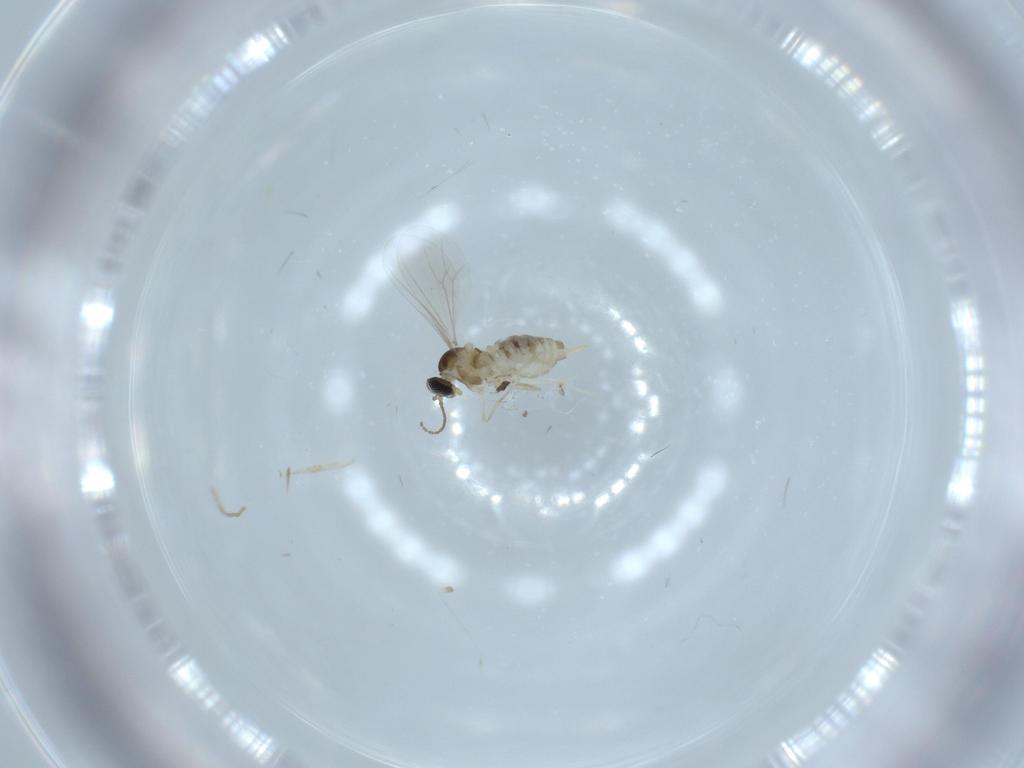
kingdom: Animalia
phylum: Arthropoda
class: Insecta
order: Diptera
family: Cecidomyiidae
